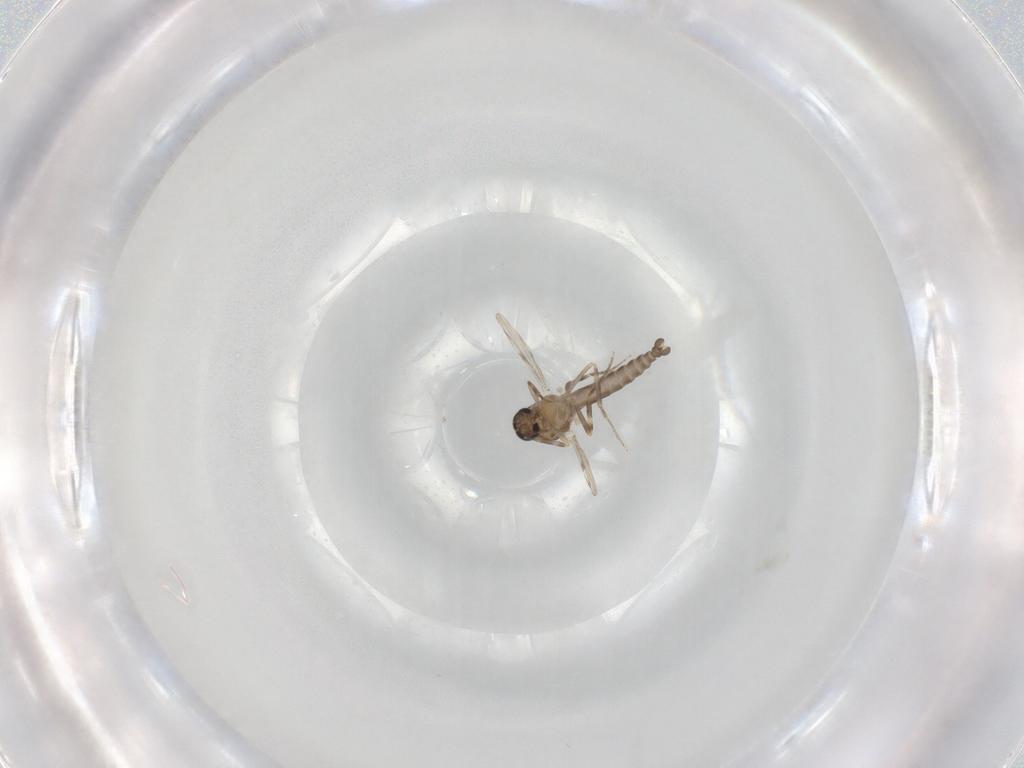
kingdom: Animalia
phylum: Arthropoda
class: Insecta
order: Diptera
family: Ceratopogonidae
